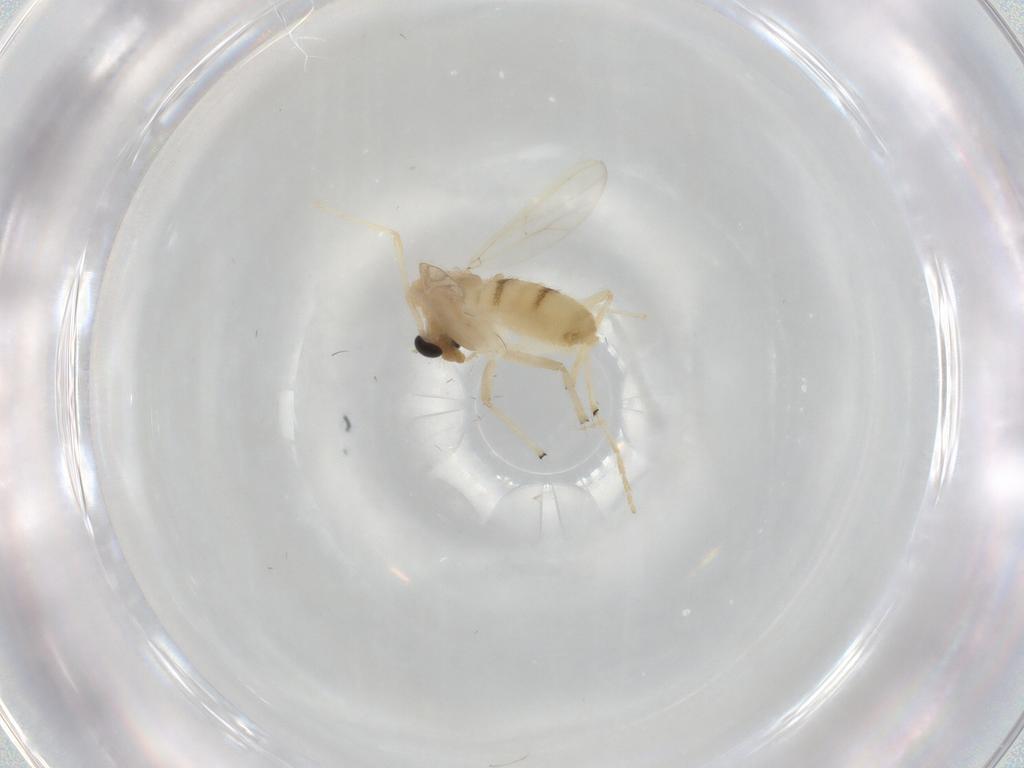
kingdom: Animalia
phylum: Arthropoda
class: Insecta
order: Diptera
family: Chironomidae
